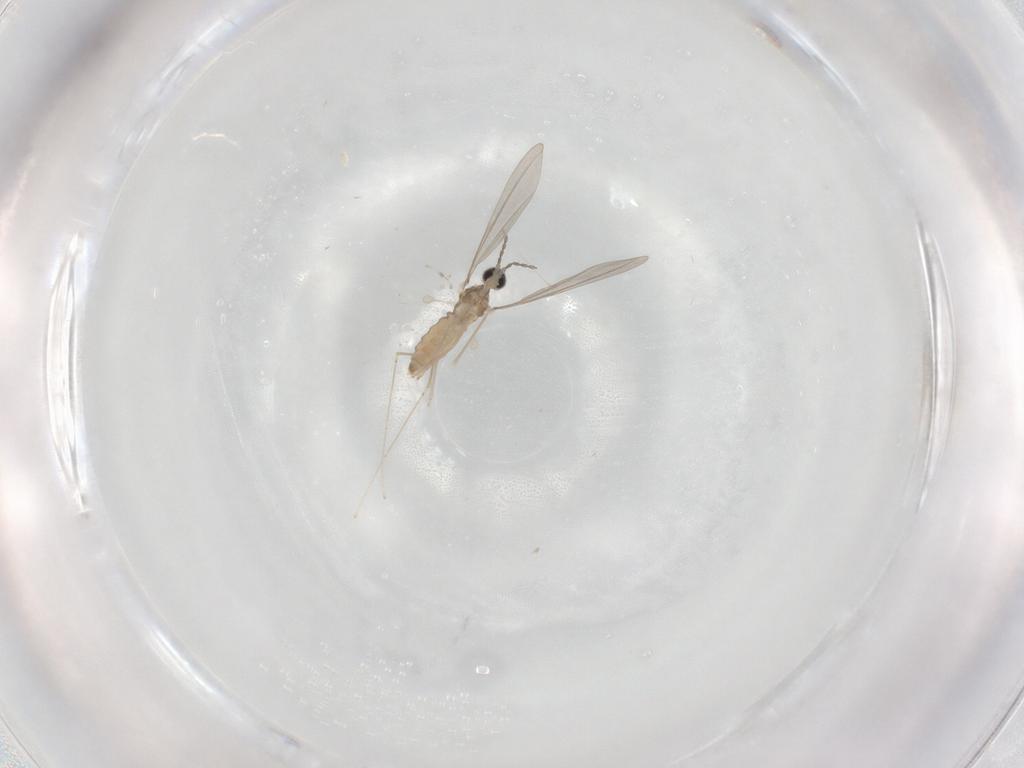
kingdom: Animalia
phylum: Arthropoda
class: Insecta
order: Diptera
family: Cecidomyiidae
